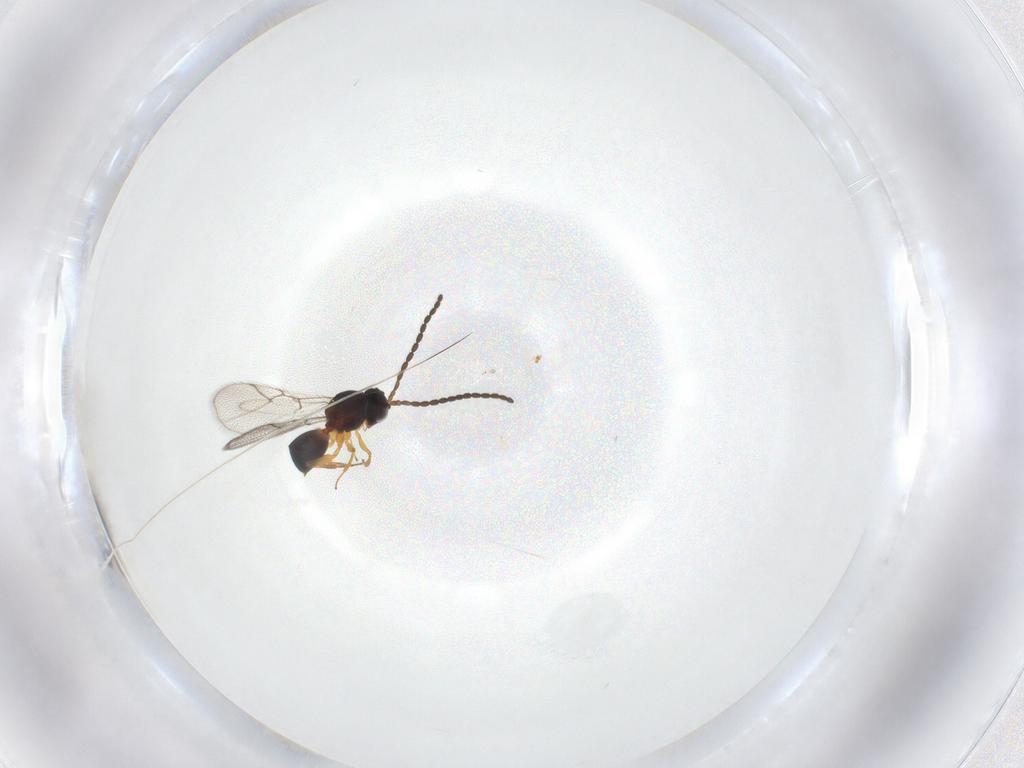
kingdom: Animalia
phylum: Arthropoda
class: Insecta
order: Hymenoptera
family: Figitidae
